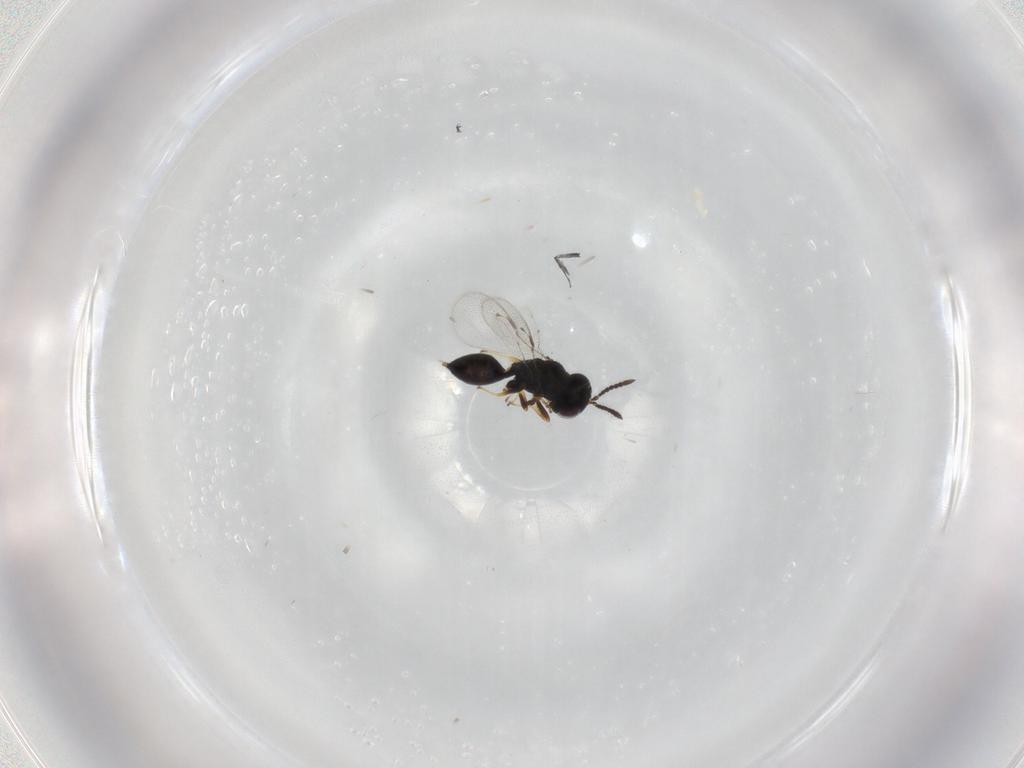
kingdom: Animalia
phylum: Arthropoda
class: Insecta
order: Hymenoptera
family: Pteromalidae
